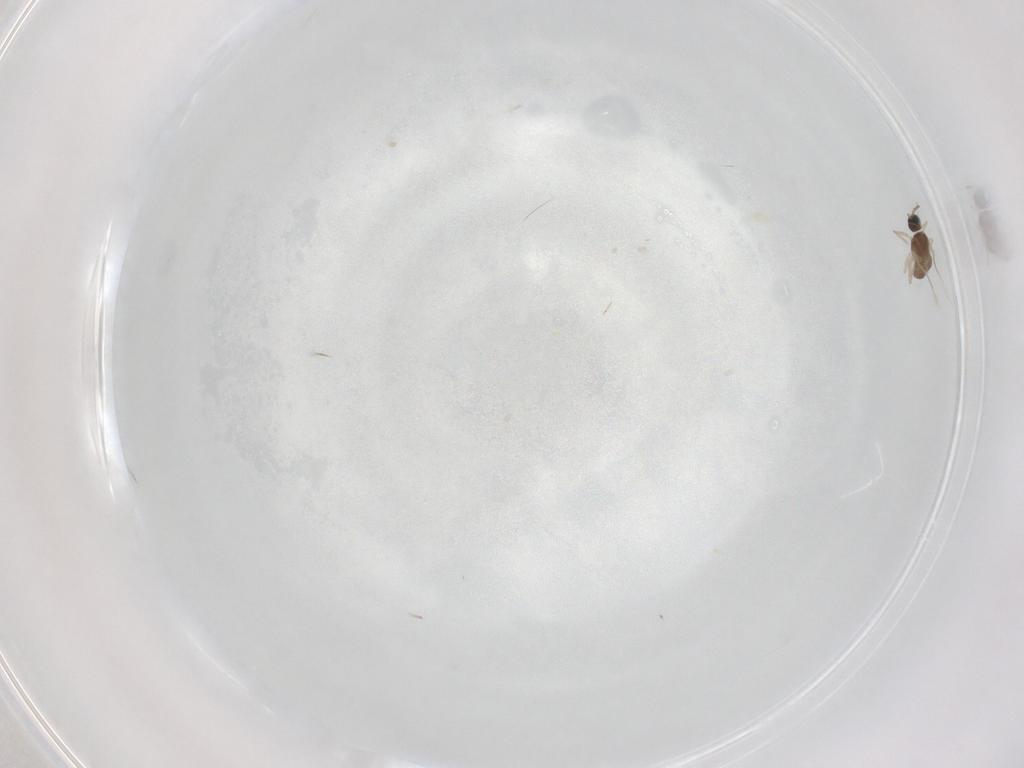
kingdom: Animalia
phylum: Arthropoda
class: Insecta
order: Diptera
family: Cecidomyiidae
